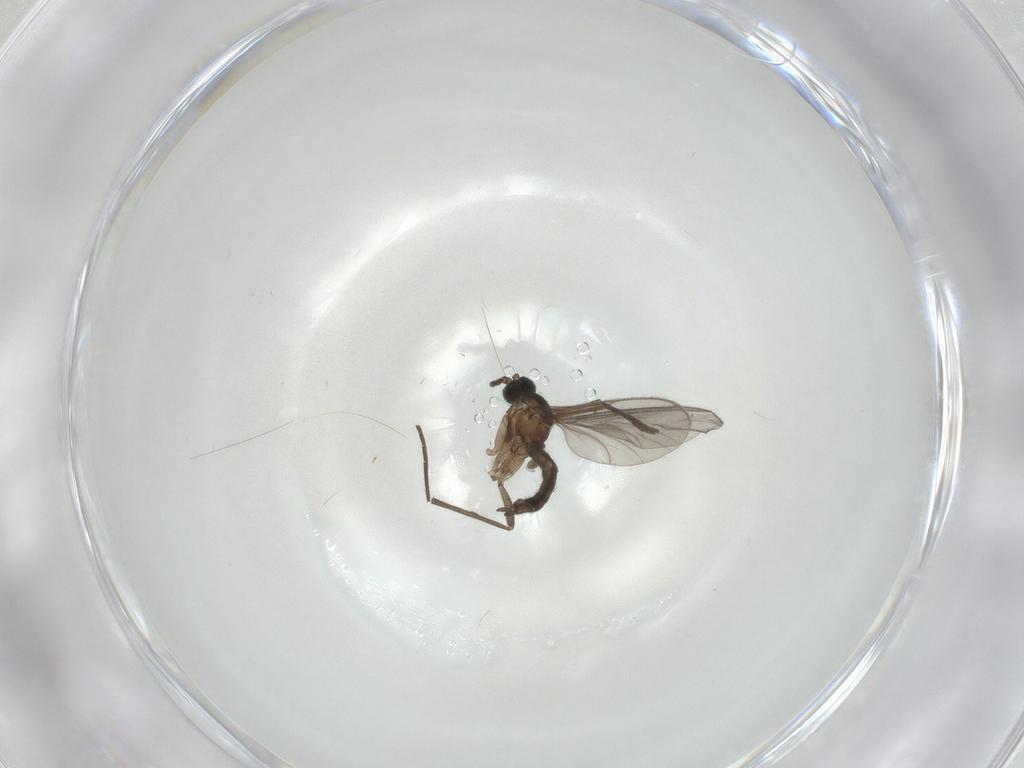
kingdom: Animalia
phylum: Arthropoda
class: Insecta
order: Diptera
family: Sciaridae
